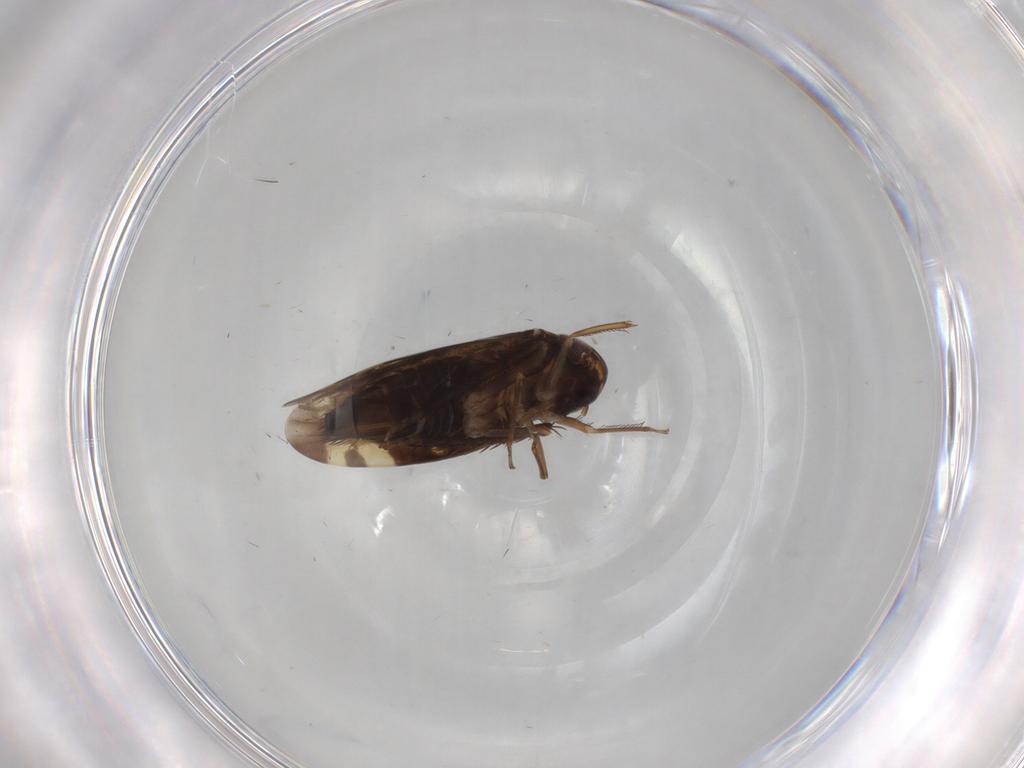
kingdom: Animalia
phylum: Arthropoda
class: Insecta
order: Hemiptera
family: Cicadellidae
